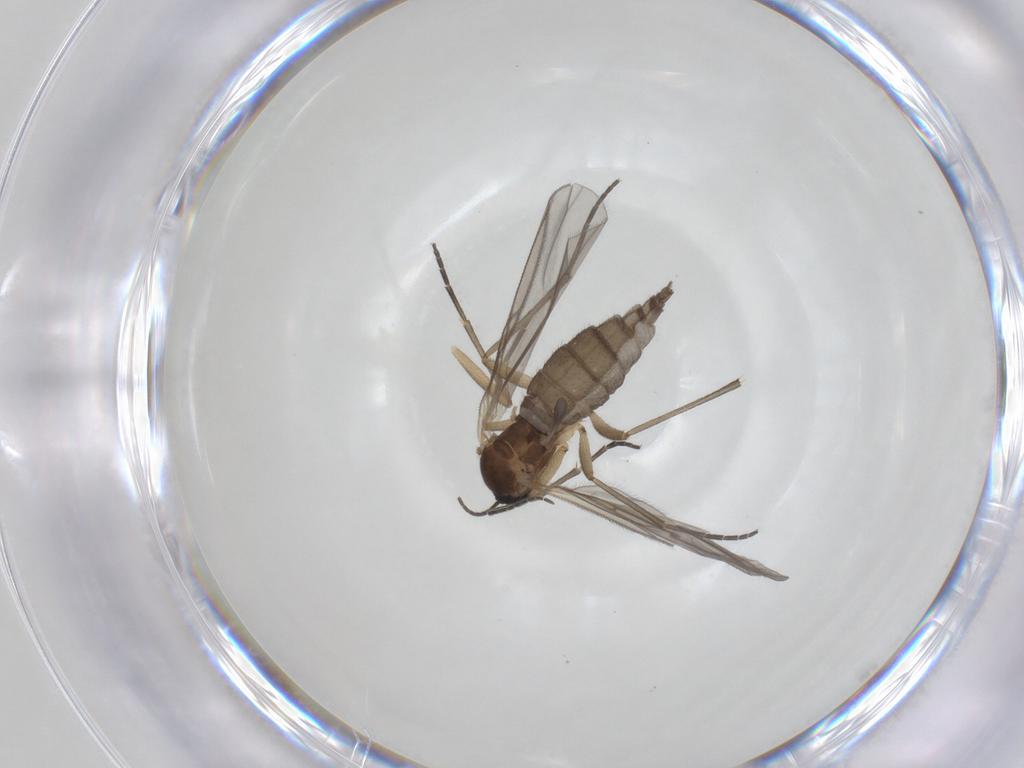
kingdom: Animalia
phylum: Arthropoda
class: Insecta
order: Diptera
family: Sciaridae
